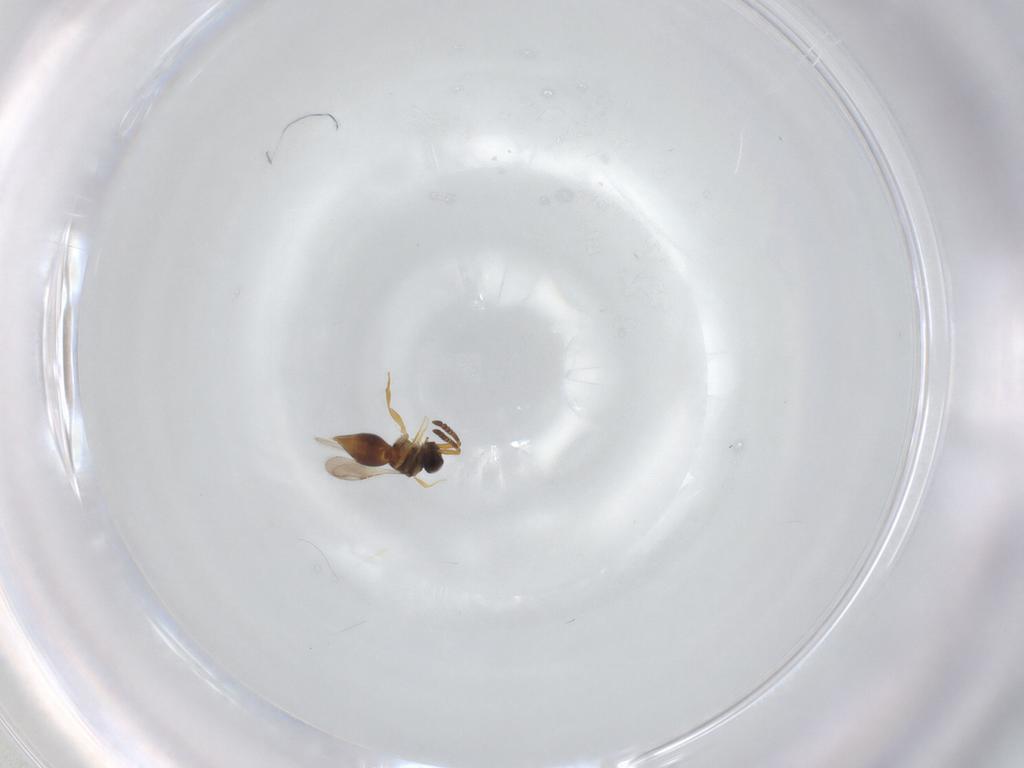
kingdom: Animalia
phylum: Arthropoda
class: Insecta
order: Hymenoptera
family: Ceraphronidae
